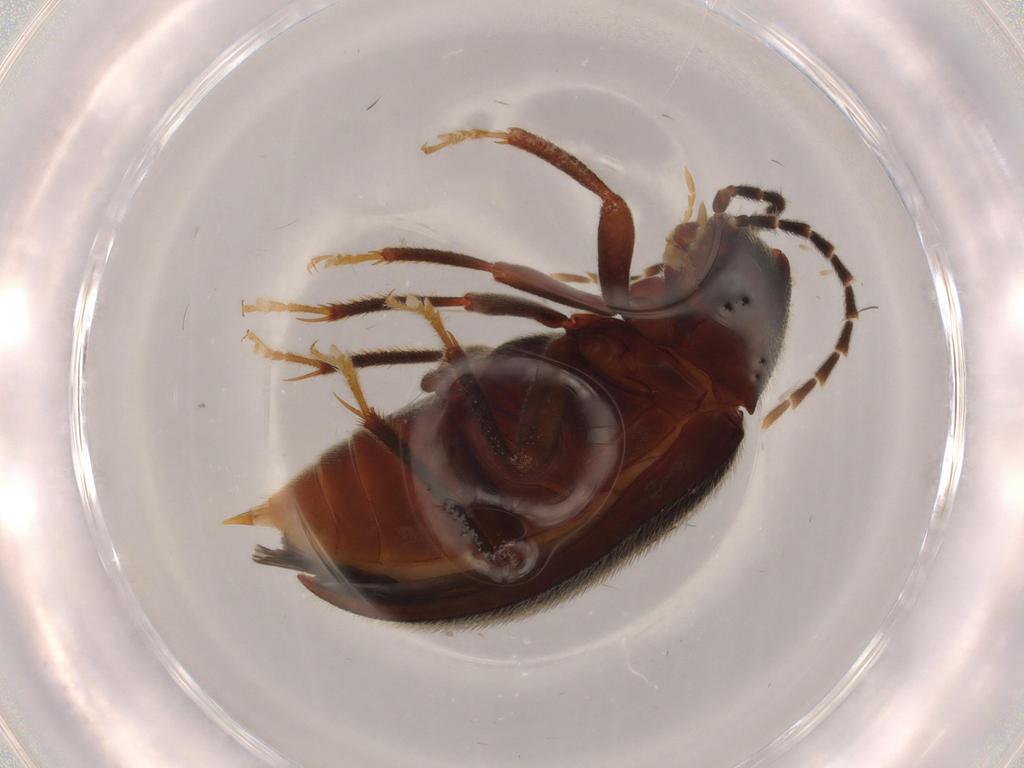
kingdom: Animalia
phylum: Arthropoda
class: Insecta
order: Coleoptera
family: Ptilodactylidae
